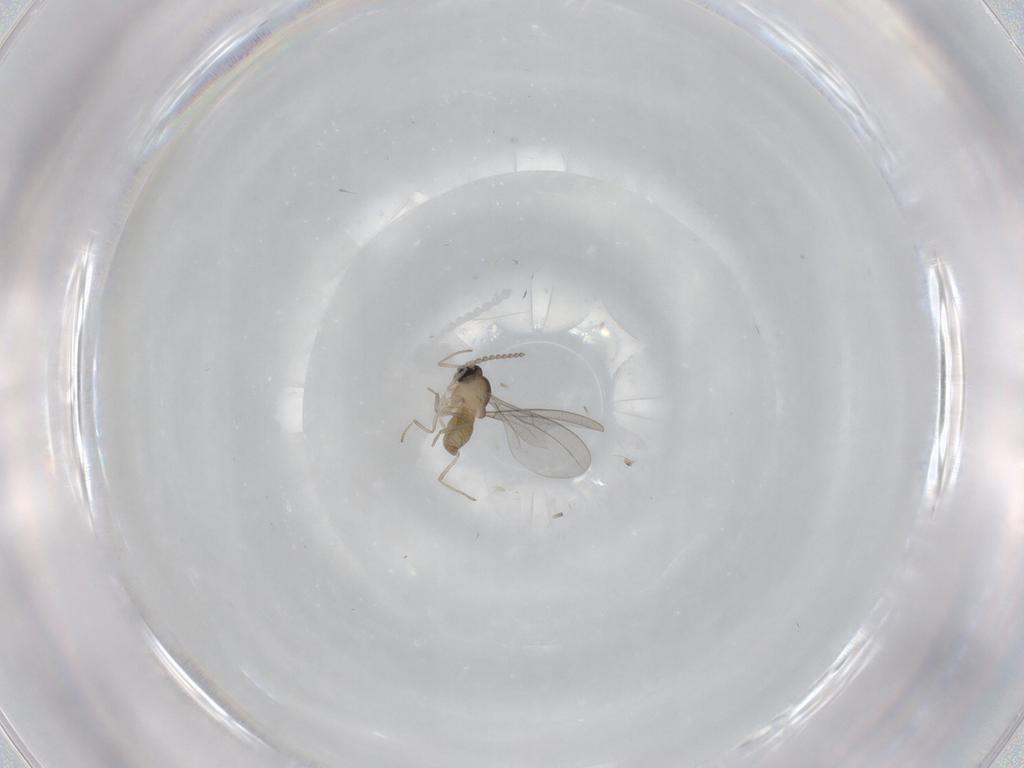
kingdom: Animalia
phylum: Arthropoda
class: Insecta
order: Diptera
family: Cecidomyiidae
